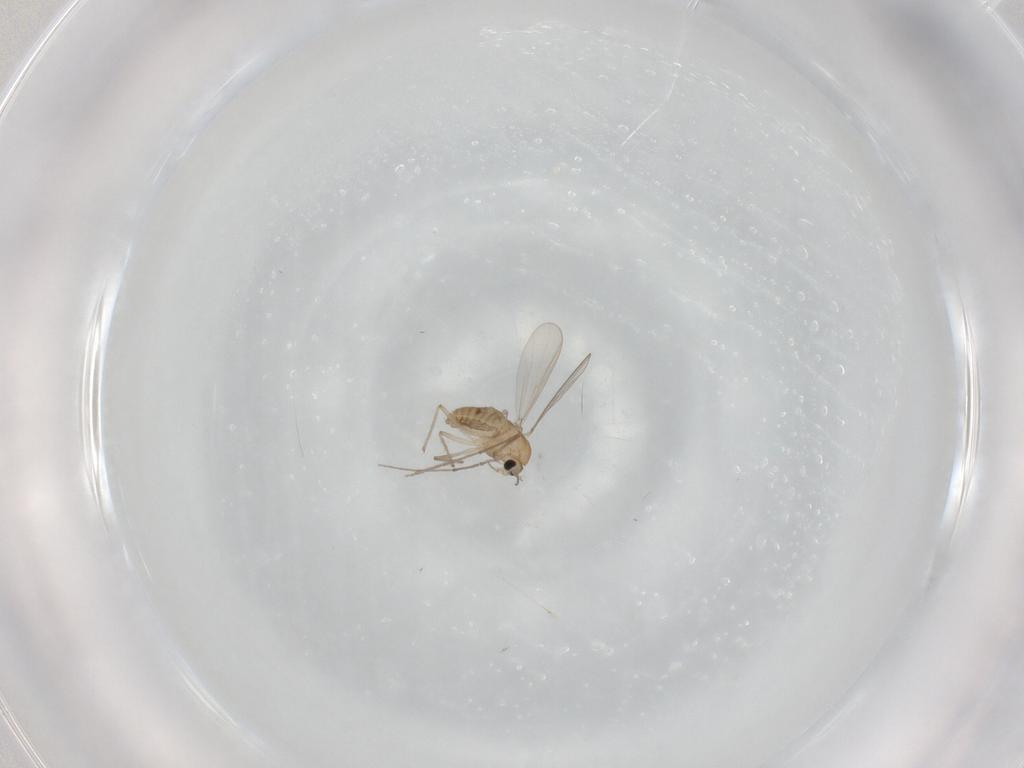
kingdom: Animalia
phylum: Arthropoda
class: Insecta
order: Diptera
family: Chironomidae
